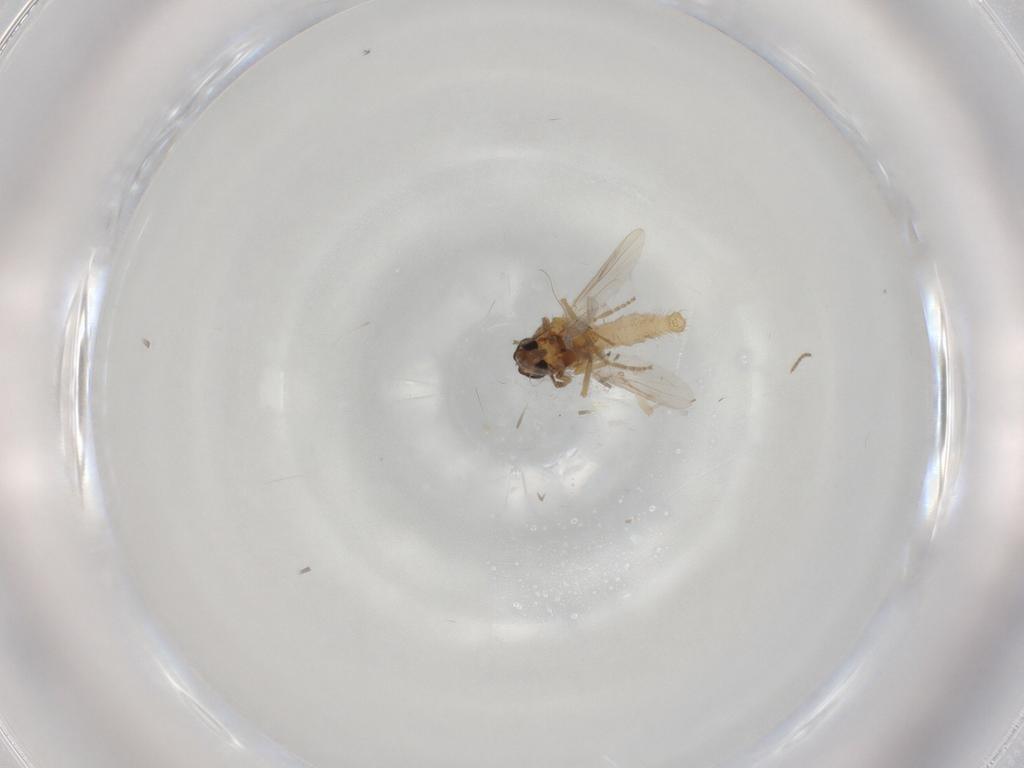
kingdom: Animalia
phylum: Arthropoda
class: Insecta
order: Diptera
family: Ceratopogonidae
